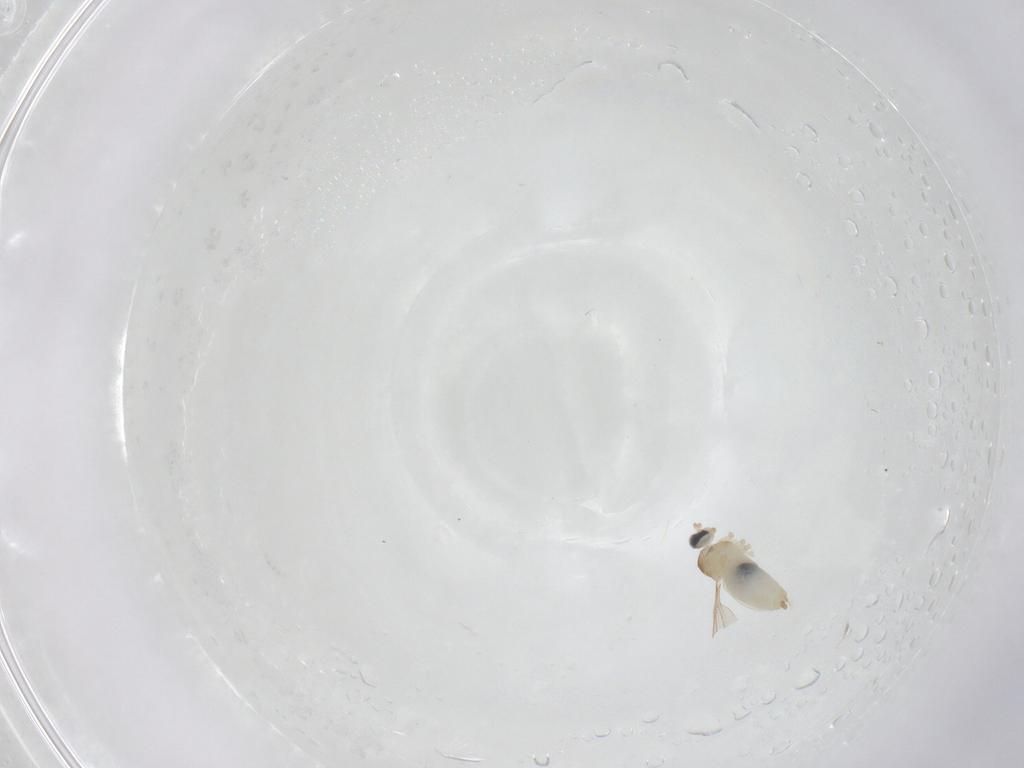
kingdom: Animalia
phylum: Arthropoda
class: Insecta
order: Diptera
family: Cecidomyiidae
